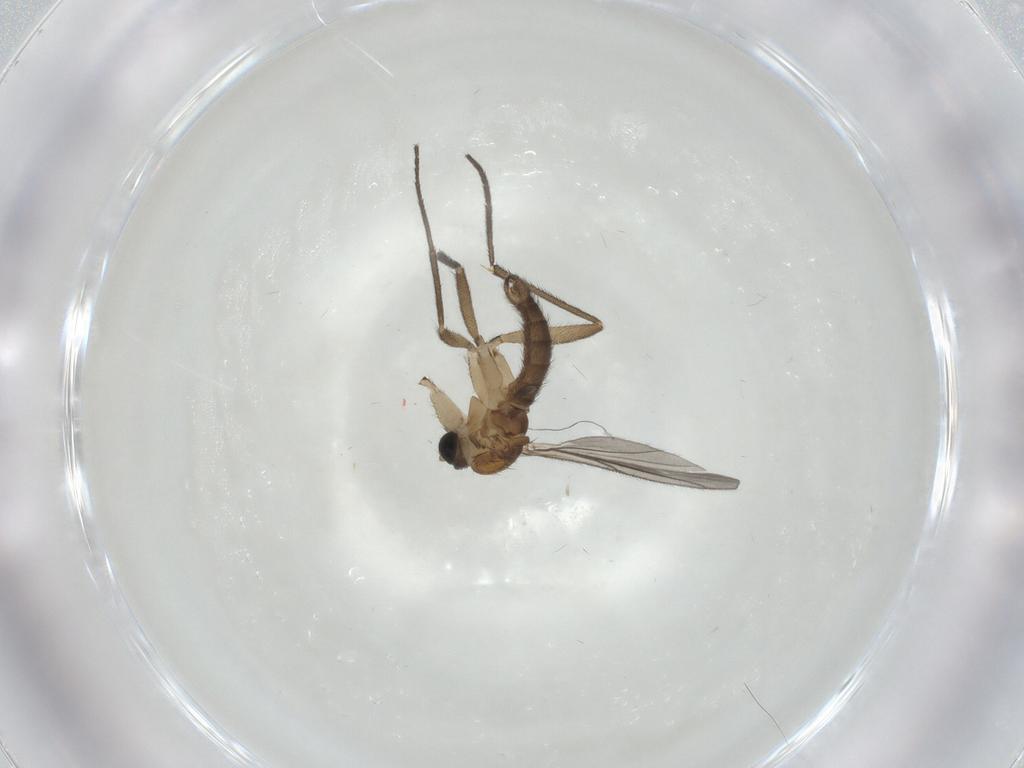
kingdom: Animalia
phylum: Arthropoda
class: Insecta
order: Diptera
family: Sciaridae
